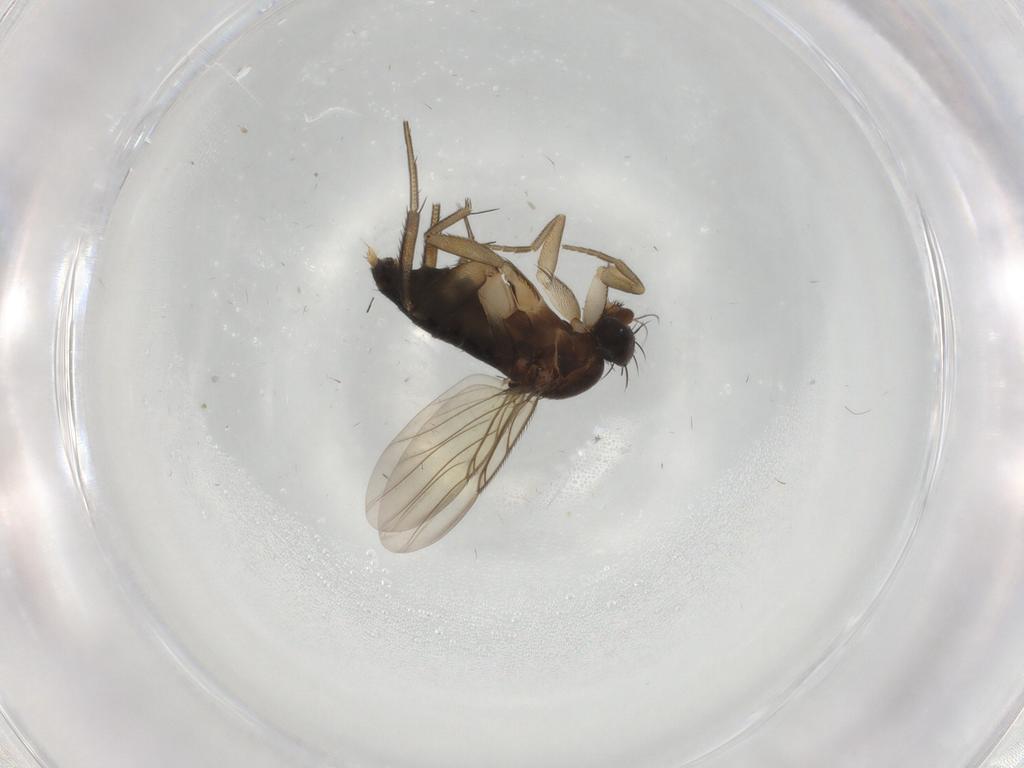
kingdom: Animalia
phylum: Arthropoda
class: Insecta
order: Diptera
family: Phoridae
